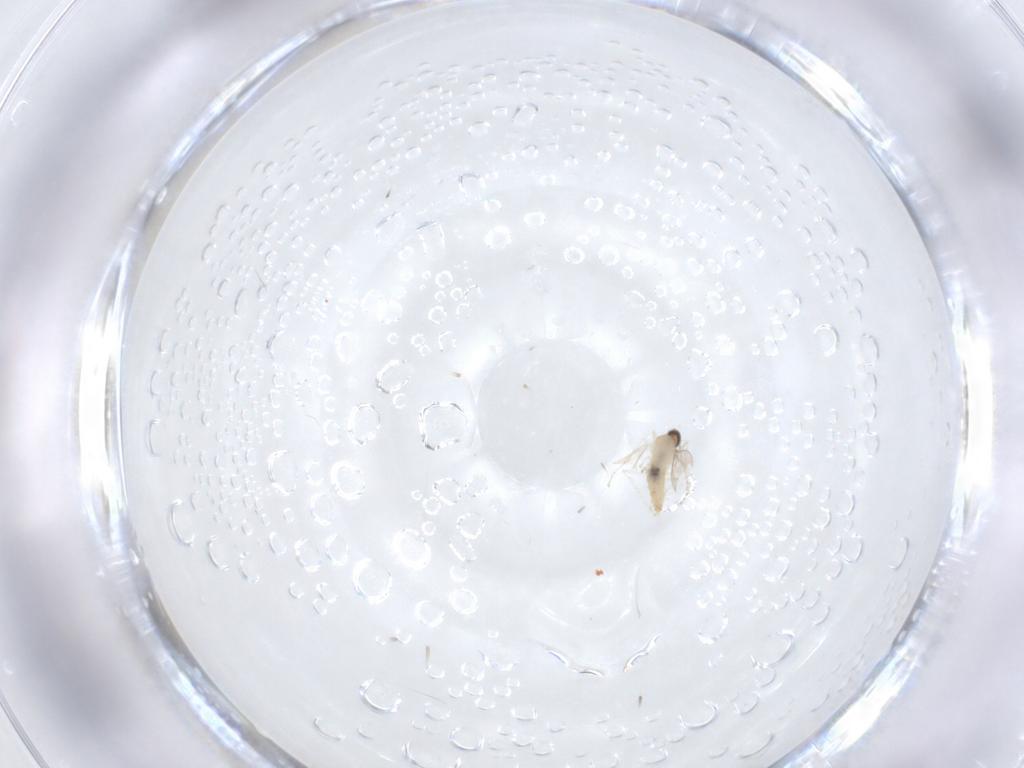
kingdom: Animalia
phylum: Arthropoda
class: Insecta
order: Diptera
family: Cecidomyiidae
